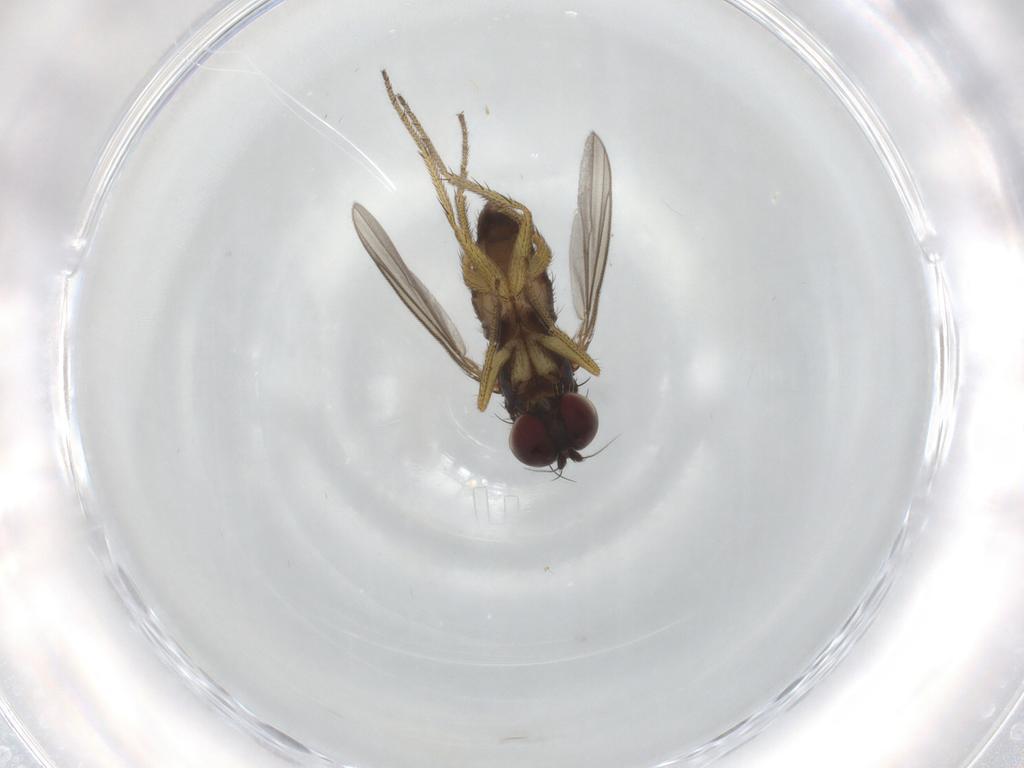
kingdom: Animalia
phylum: Arthropoda
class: Insecta
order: Diptera
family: Dolichopodidae
